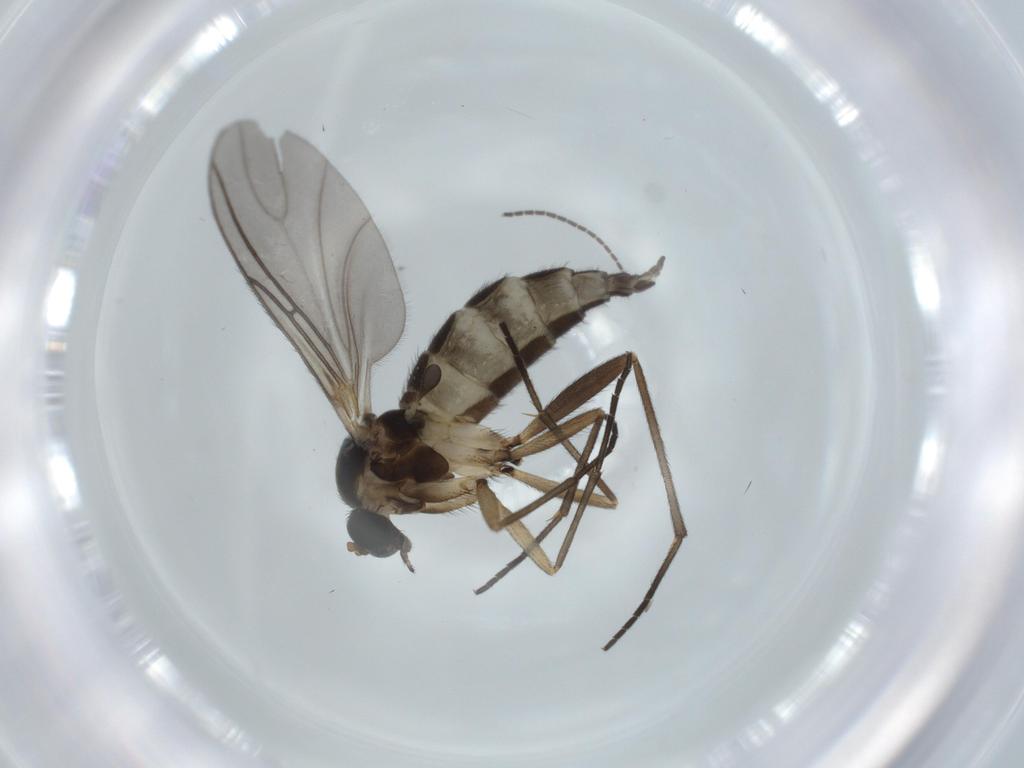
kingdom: Animalia
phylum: Arthropoda
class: Insecta
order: Diptera
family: Sciaridae
